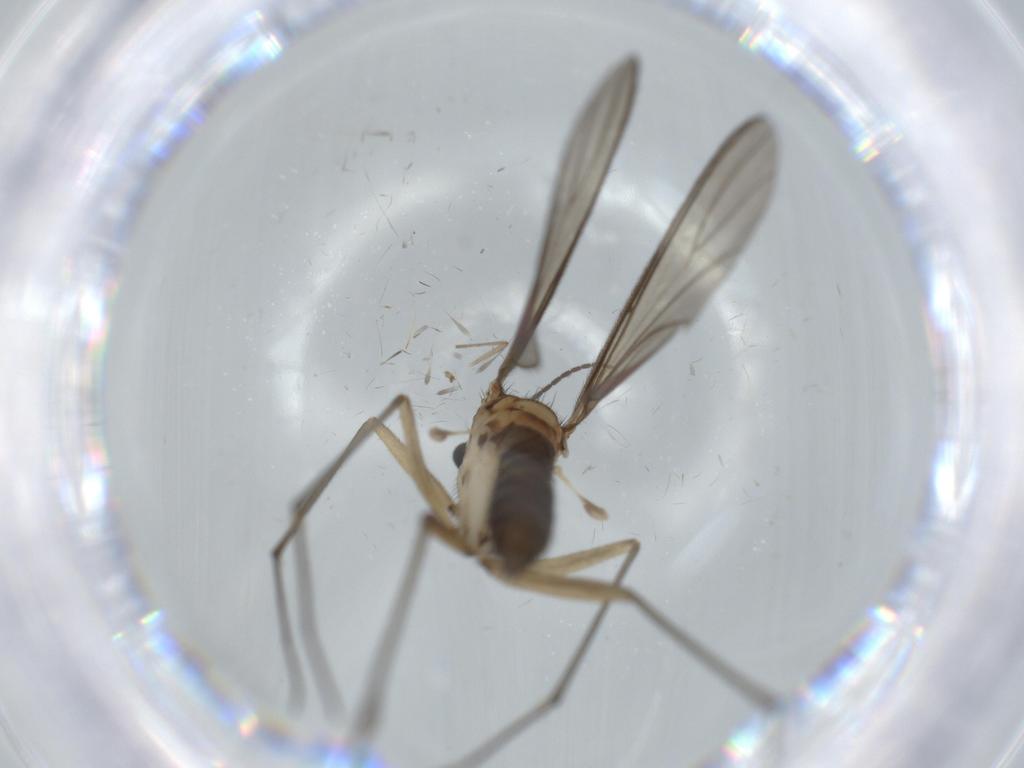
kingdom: Animalia
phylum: Arthropoda
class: Insecta
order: Diptera
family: Sciaridae
